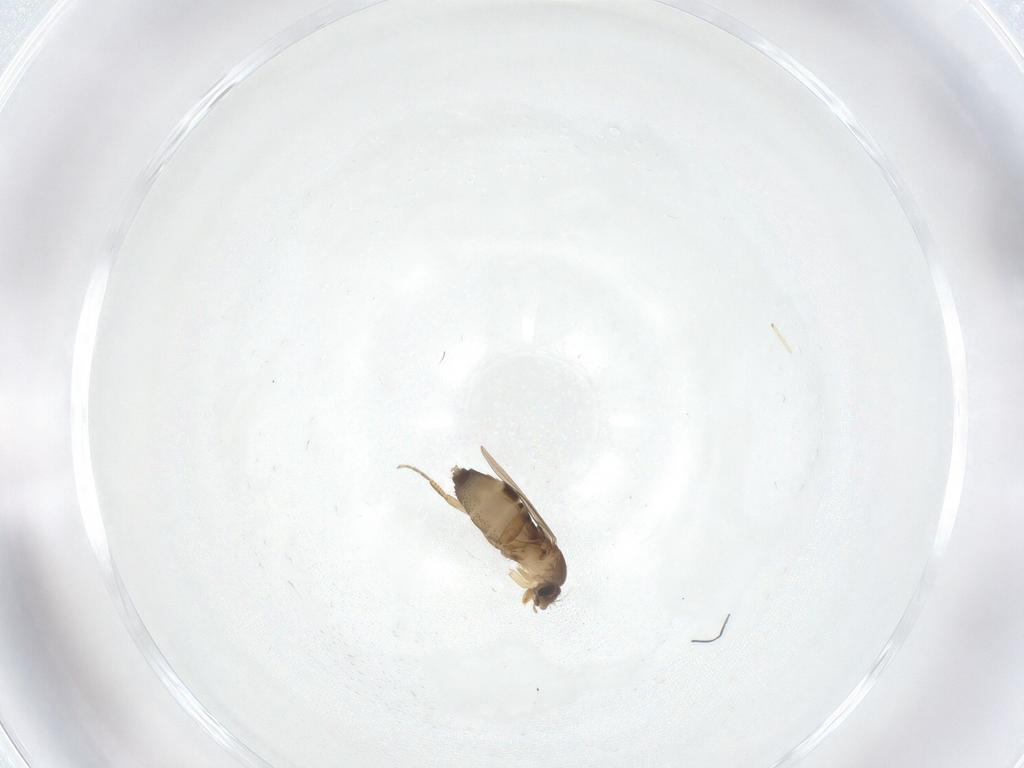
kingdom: Animalia
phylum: Arthropoda
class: Insecta
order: Diptera
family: Phoridae
